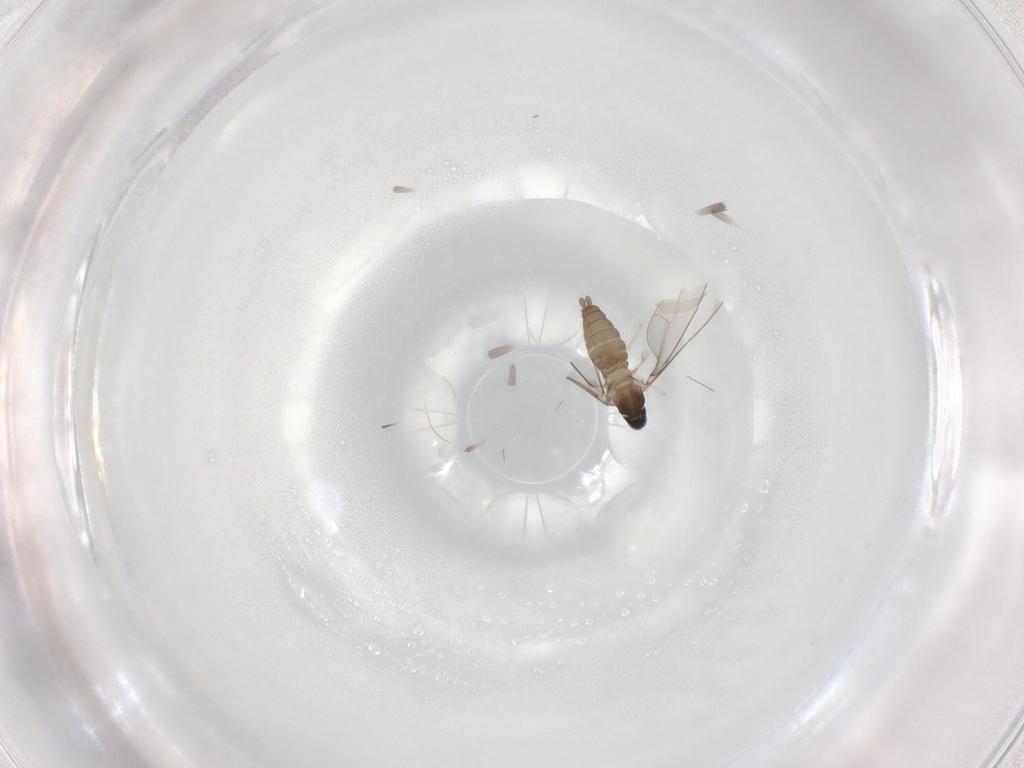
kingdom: Animalia
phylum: Arthropoda
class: Insecta
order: Diptera
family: Cecidomyiidae
